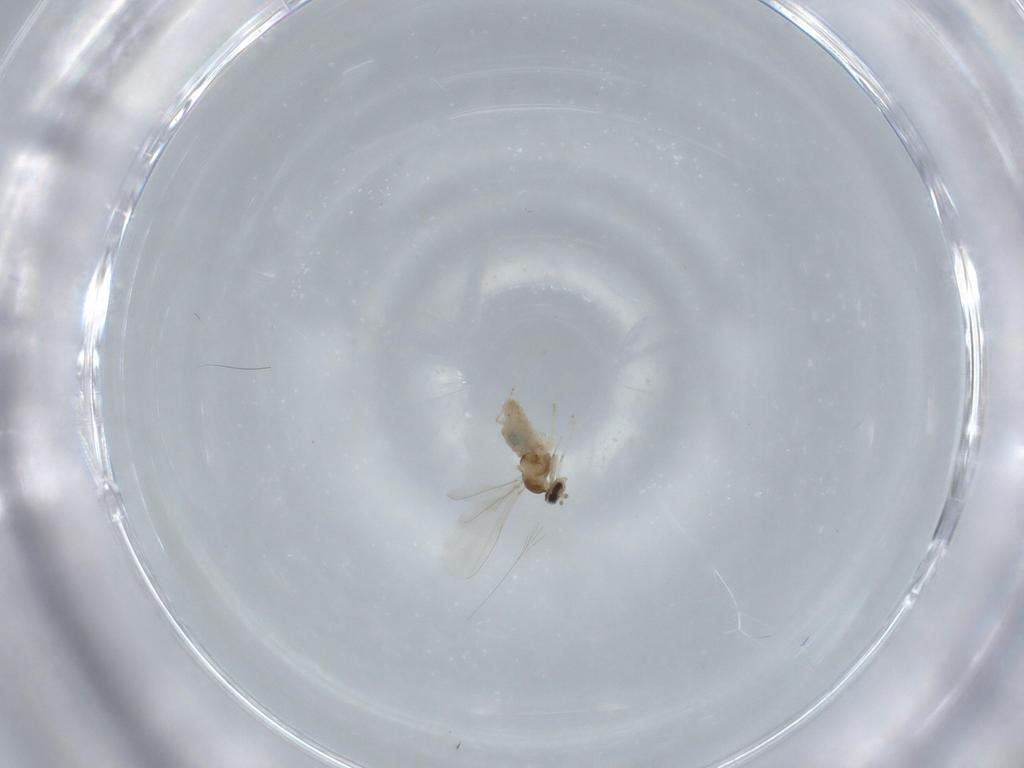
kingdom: Animalia
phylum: Arthropoda
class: Insecta
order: Diptera
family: Cecidomyiidae
